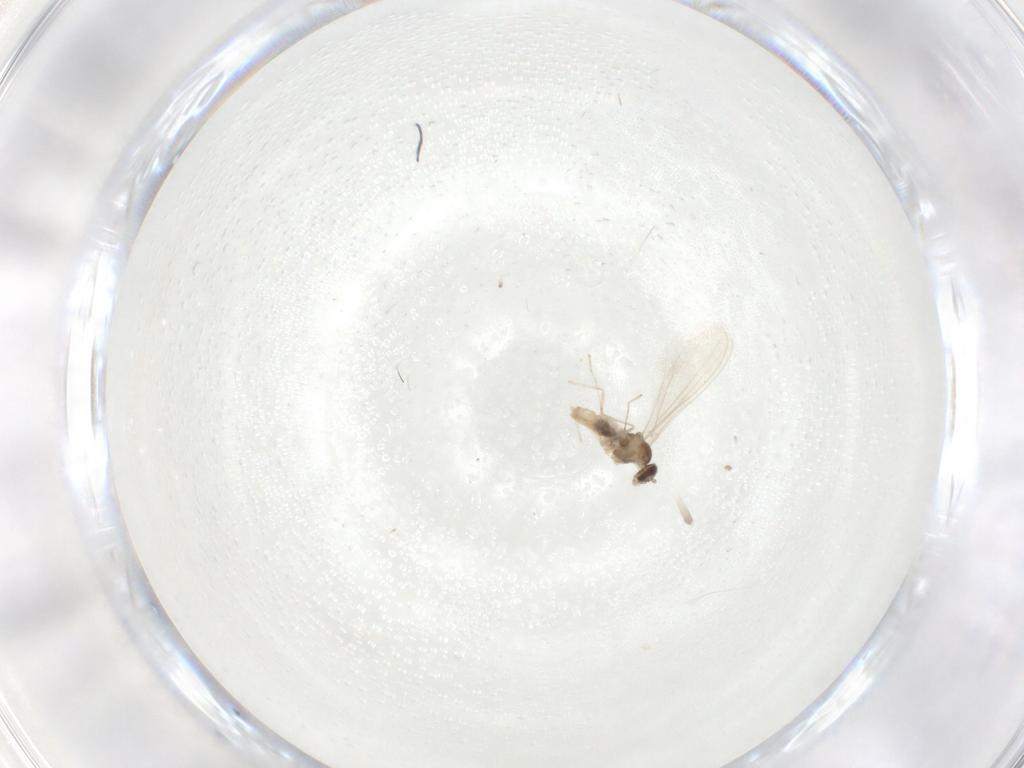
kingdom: Animalia
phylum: Arthropoda
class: Insecta
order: Diptera
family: Cecidomyiidae
